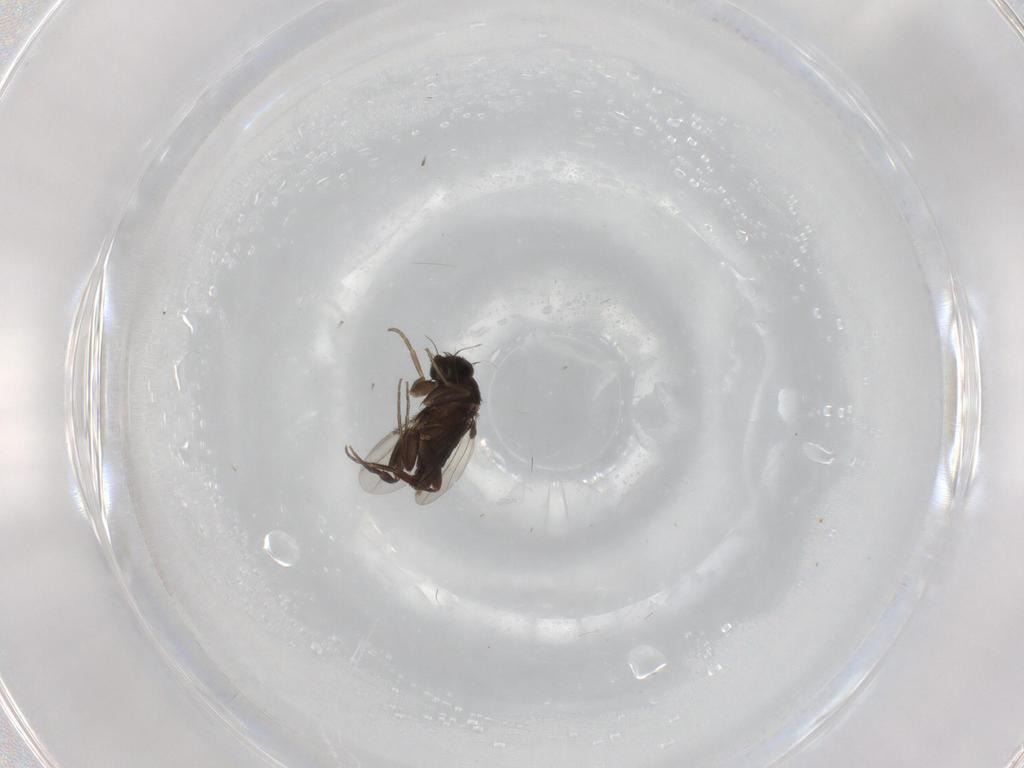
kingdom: Animalia
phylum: Arthropoda
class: Insecta
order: Diptera
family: Phoridae
